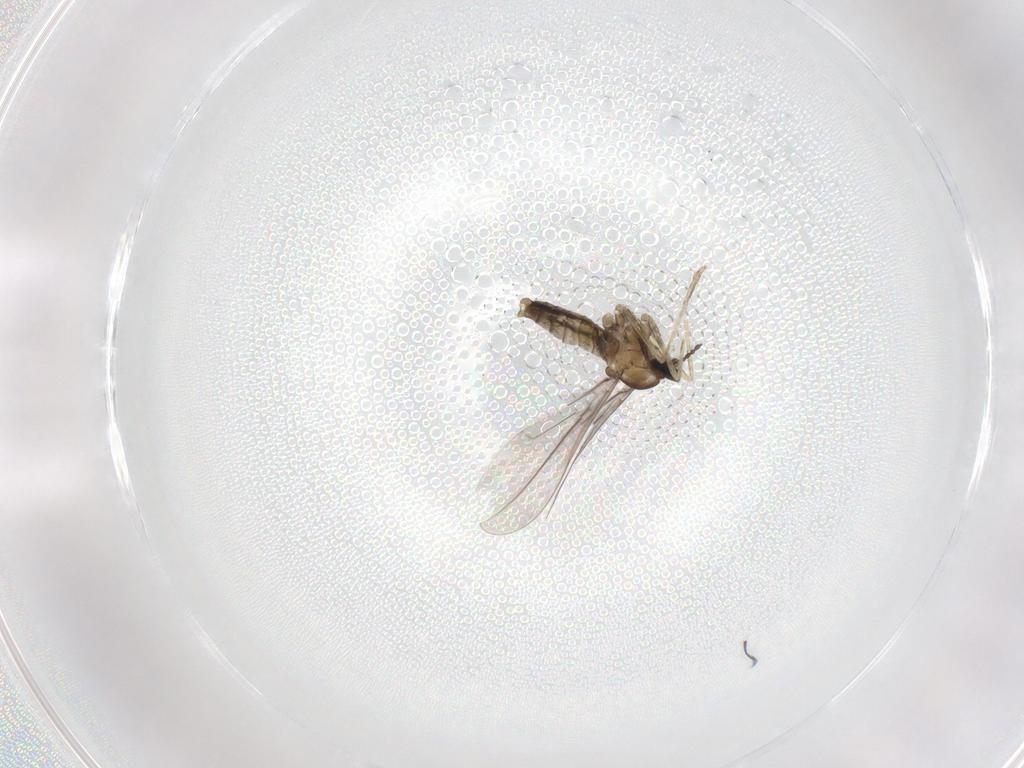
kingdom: Animalia
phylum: Arthropoda
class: Insecta
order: Diptera
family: Cecidomyiidae
